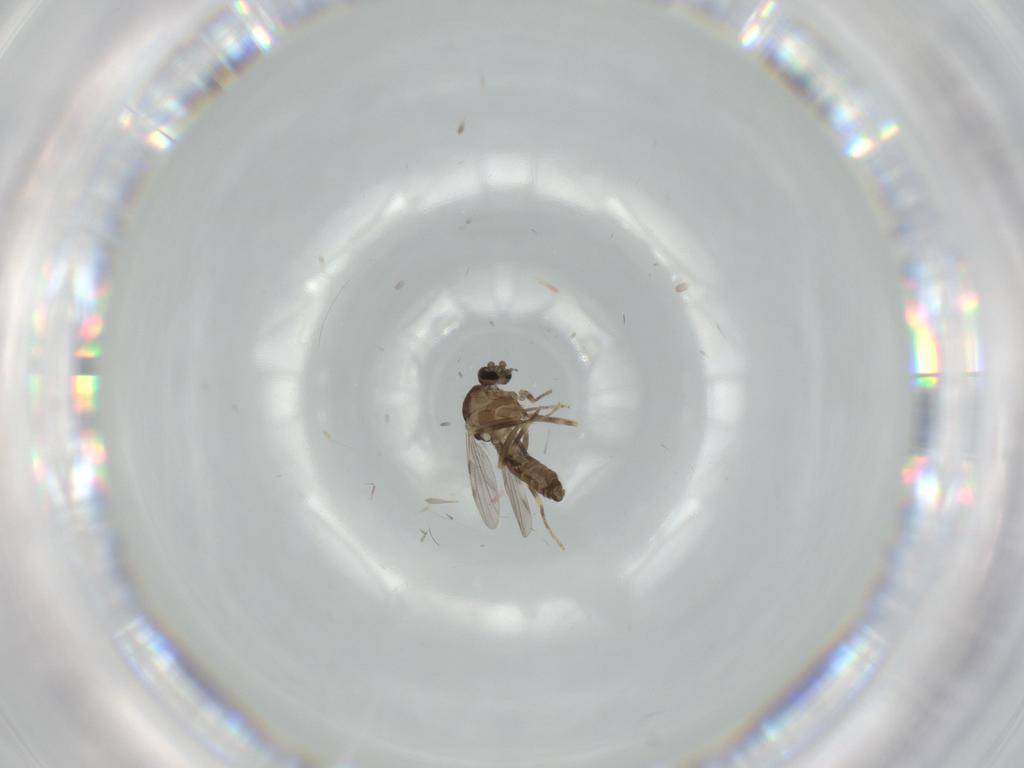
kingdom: Animalia
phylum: Arthropoda
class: Insecta
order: Diptera
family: Ceratopogonidae
